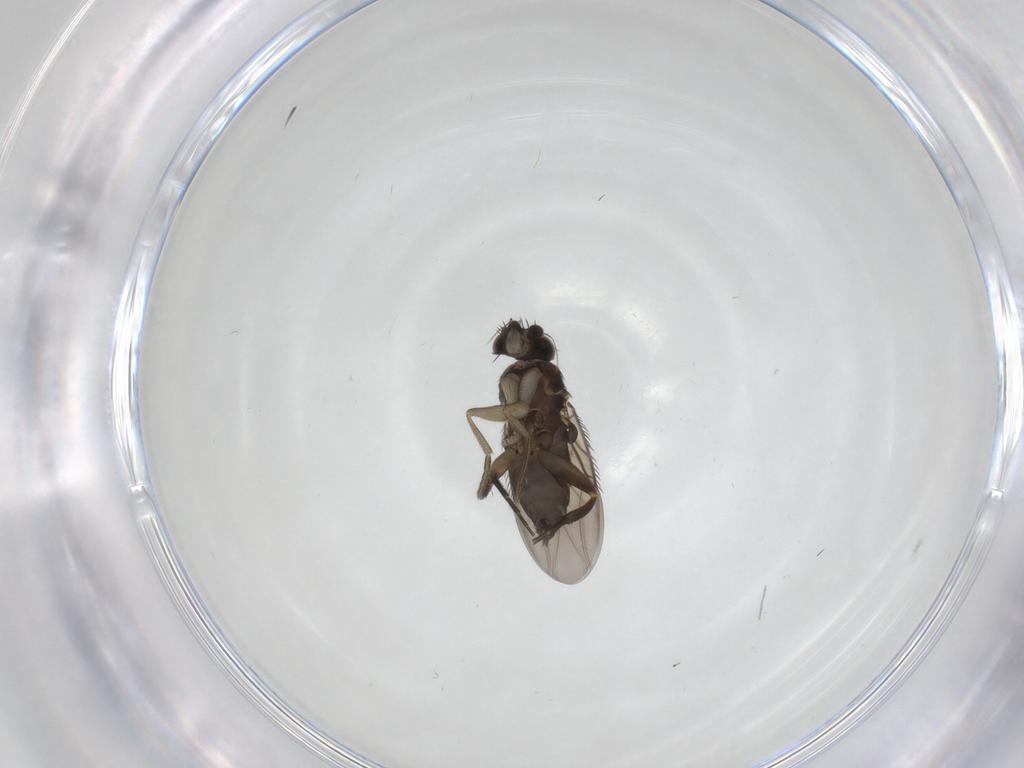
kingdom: Animalia
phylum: Arthropoda
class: Insecta
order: Diptera
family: Phoridae
